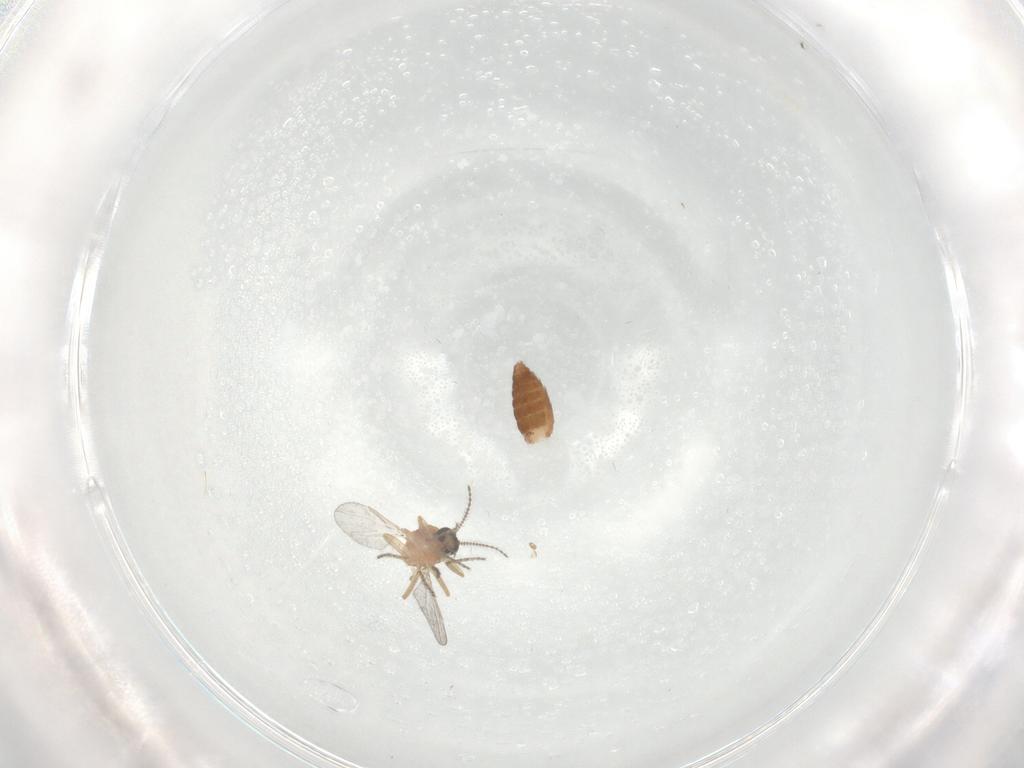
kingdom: Animalia
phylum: Arthropoda
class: Insecta
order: Diptera
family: Ceratopogonidae
